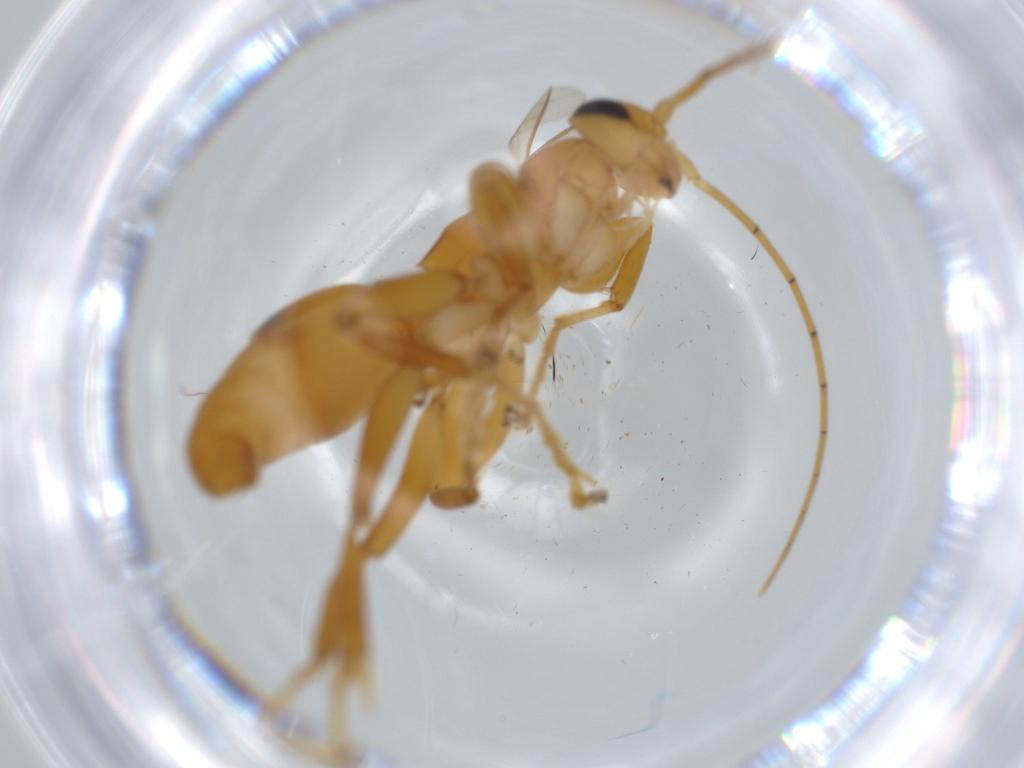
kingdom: Animalia
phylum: Arthropoda
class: Insecta
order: Hymenoptera
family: Rhopalosomatidae
